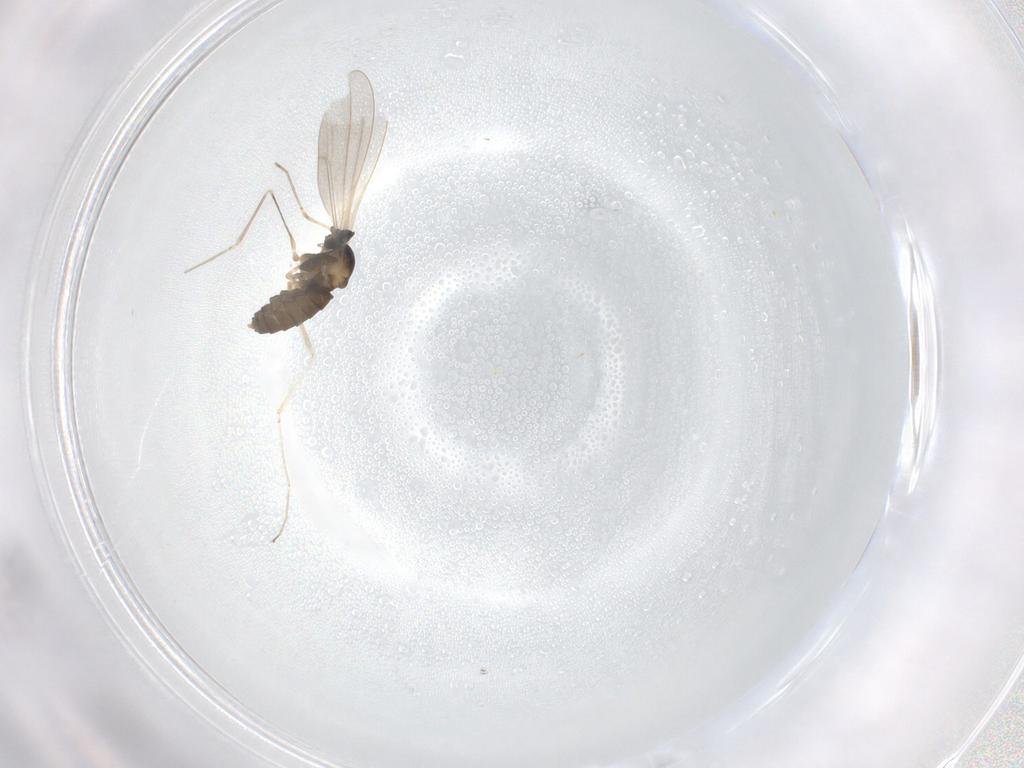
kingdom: Animalia
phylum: Arthropoda
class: Insecta
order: Diptera
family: Cecidomyiidae
